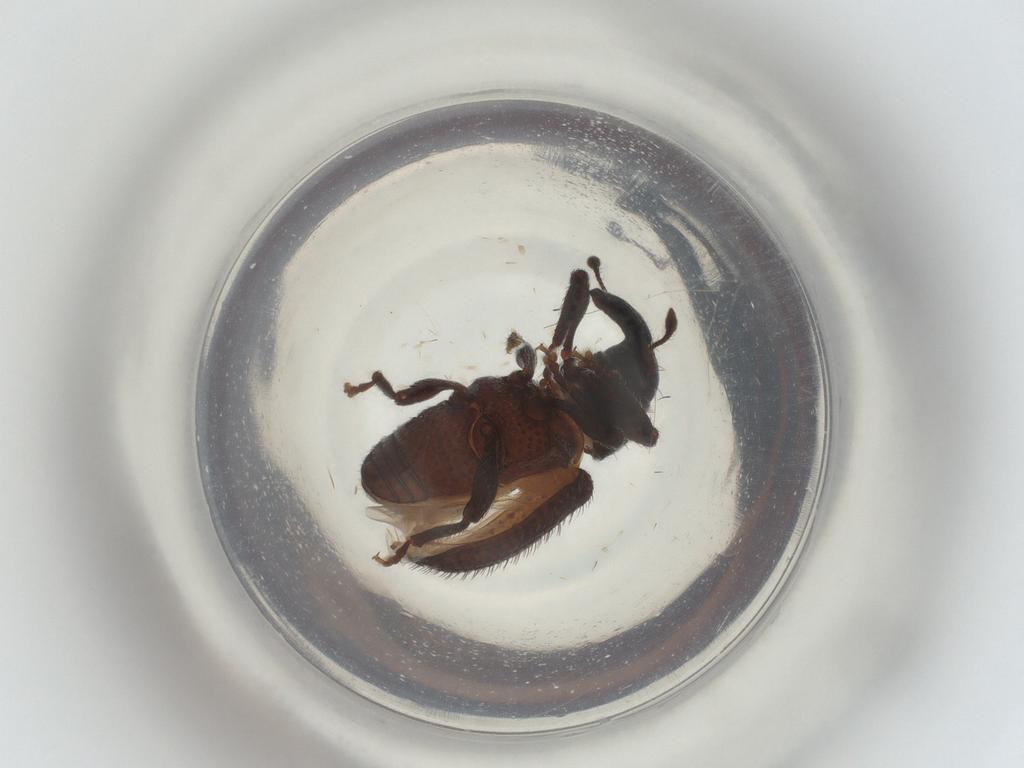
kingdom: Animalia
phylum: Arthropoda
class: Insecta
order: Coleoptera
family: Curculionidae
